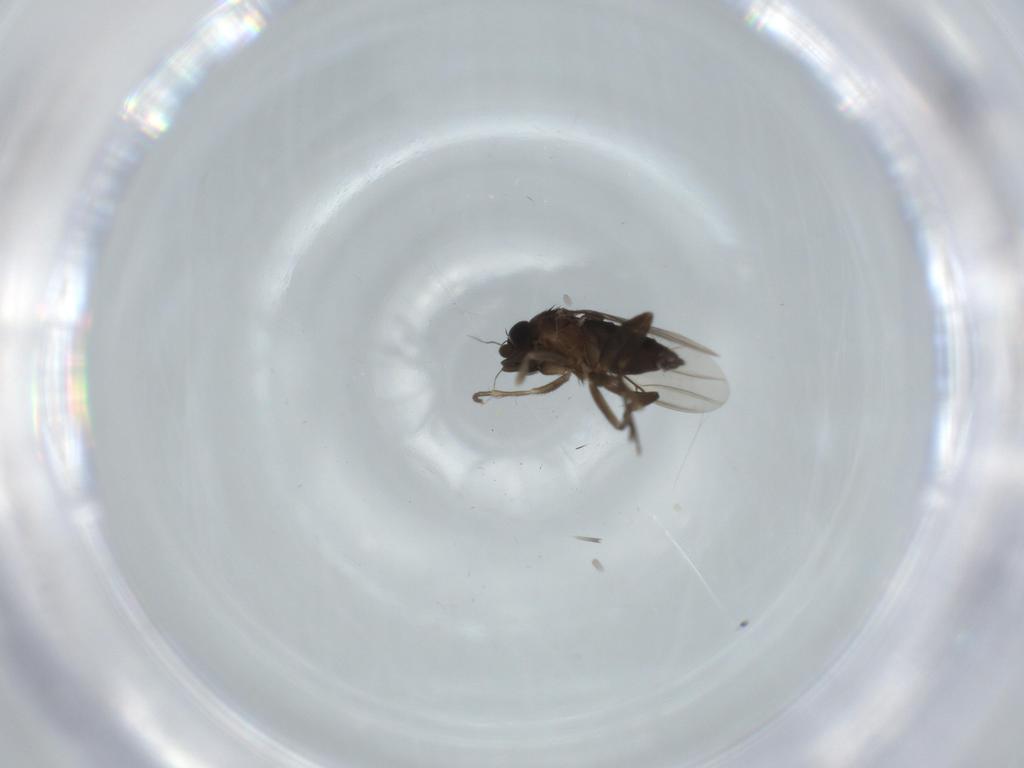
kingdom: Animalia
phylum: Arthropoda
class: Insecta
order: Diptera
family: Phoridae
